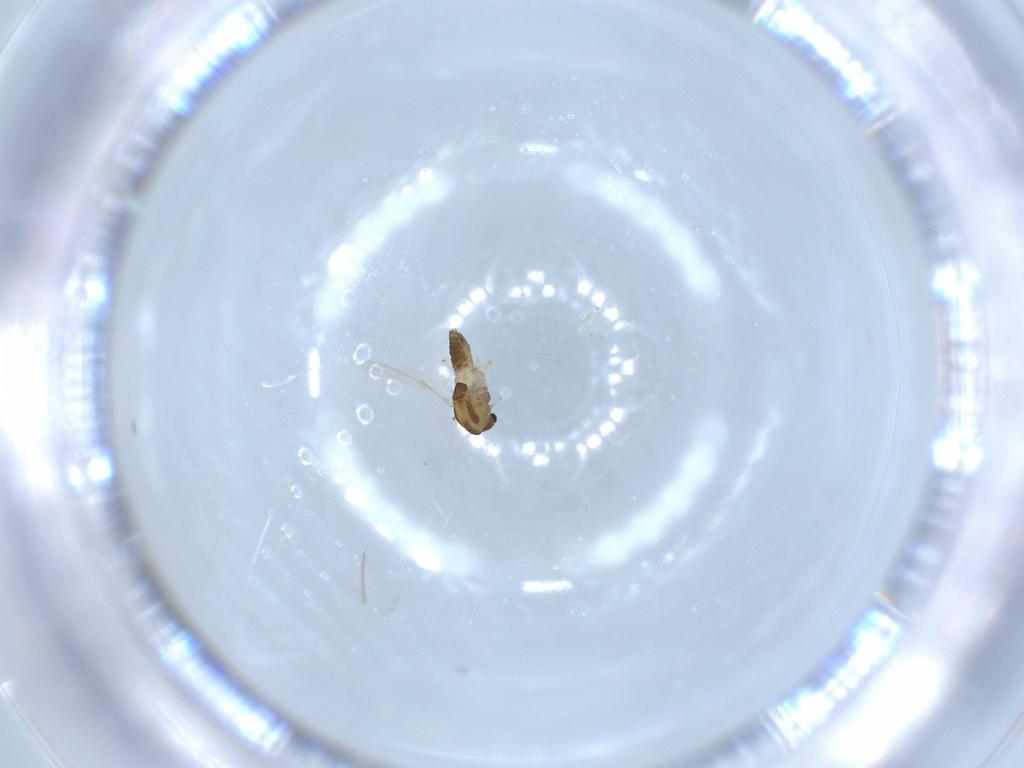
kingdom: Animalia
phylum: Arthropoda
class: Insecta
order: Diptera
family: Chironomidae
